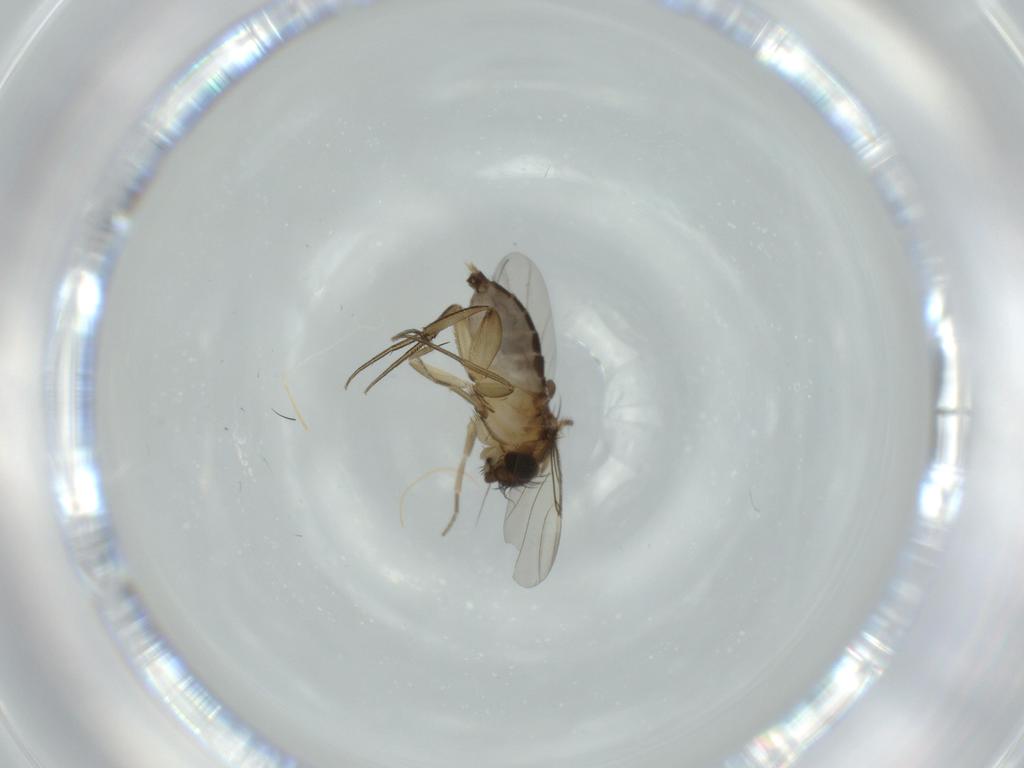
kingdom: Animalia
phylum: Arthropoda
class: Insecta
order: Diptera
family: Phoridae
